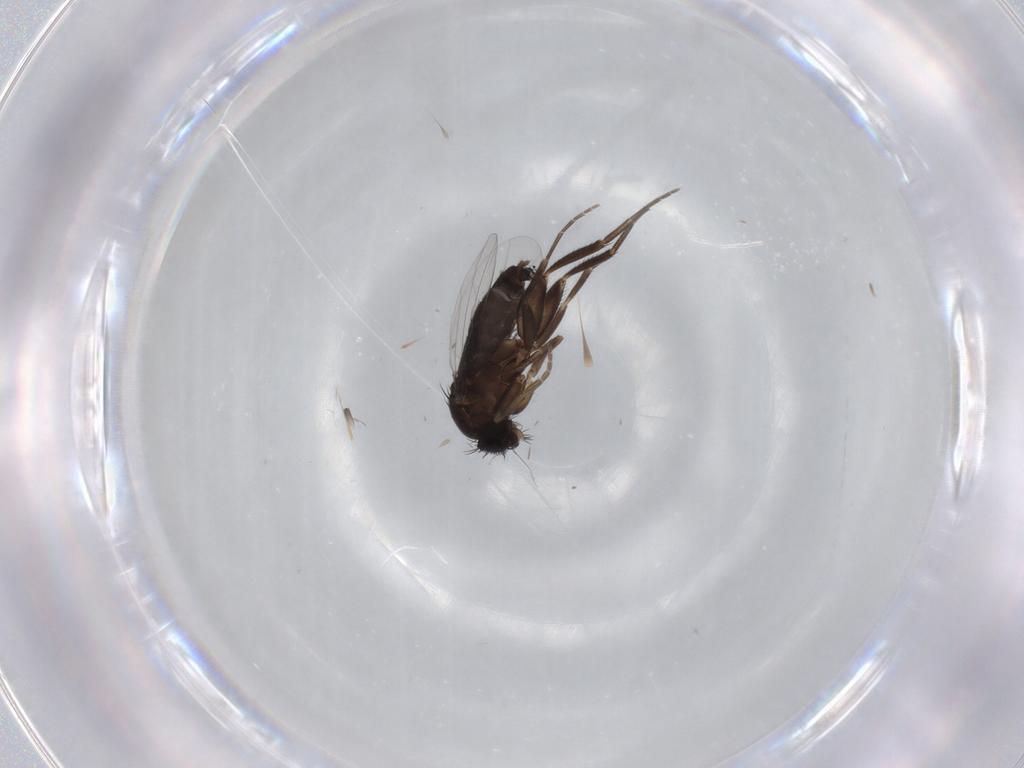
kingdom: Animalia
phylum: Arthropoda
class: Insecta
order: Diptera
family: Phoridae
